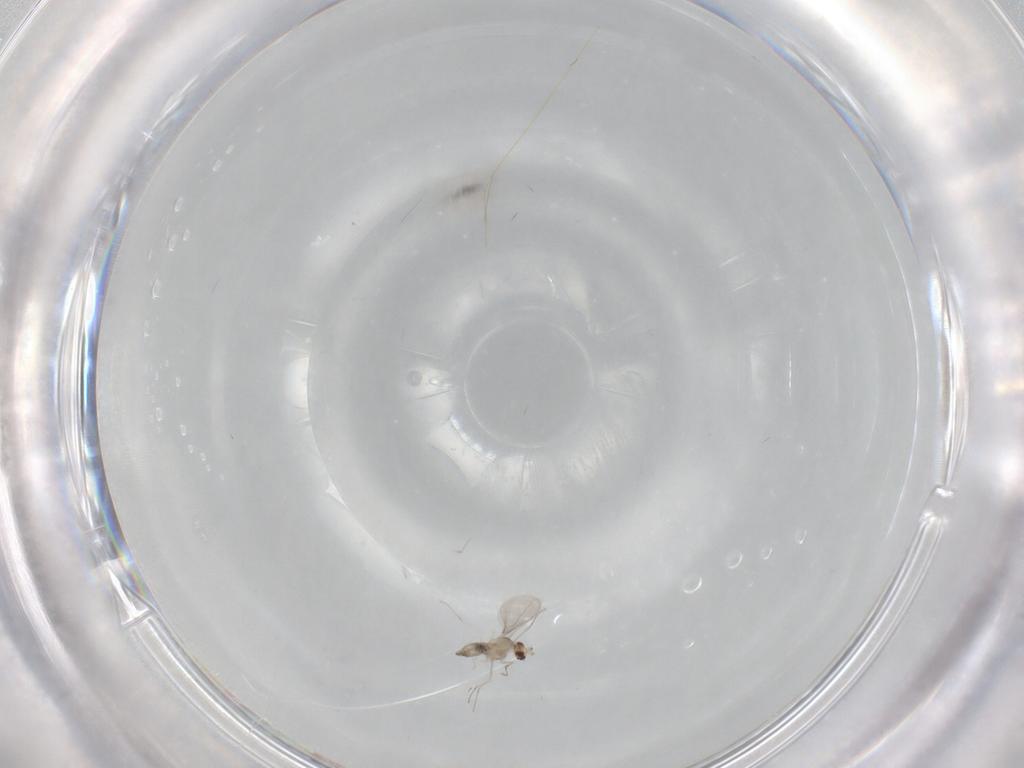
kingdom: Animalia
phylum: Arthropoda
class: Insecta
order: Diptera
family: Cecidomyiidae
